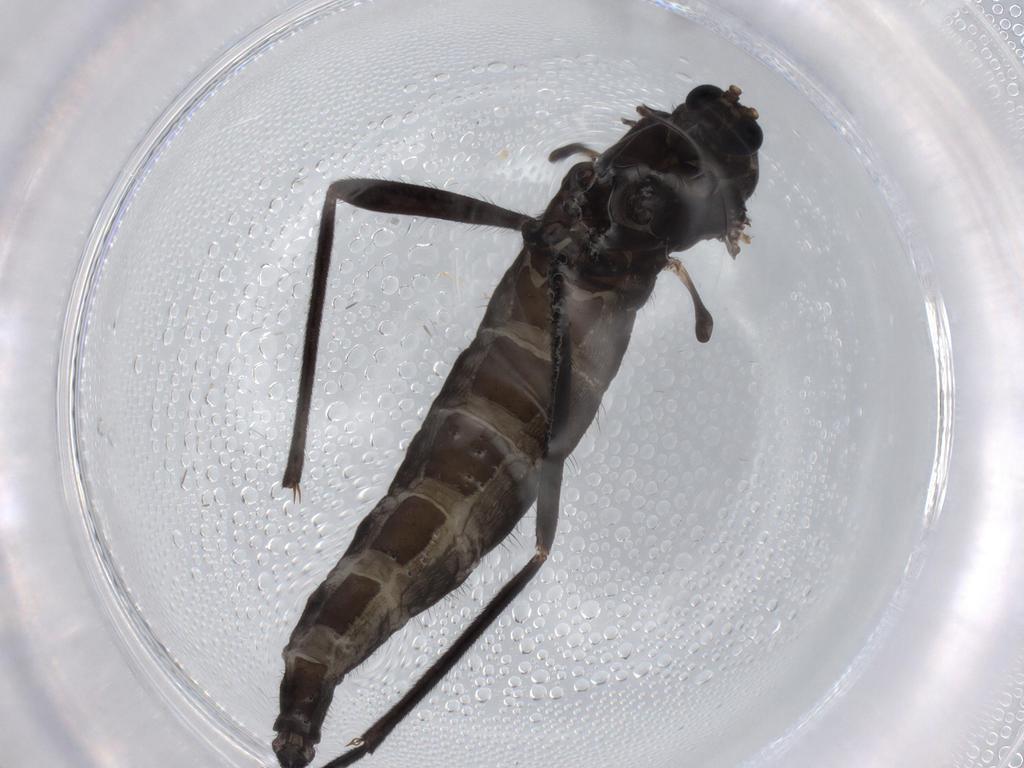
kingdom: Animalia
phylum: Arthropoda
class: Insecta
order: Diptera
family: Sciaridae
